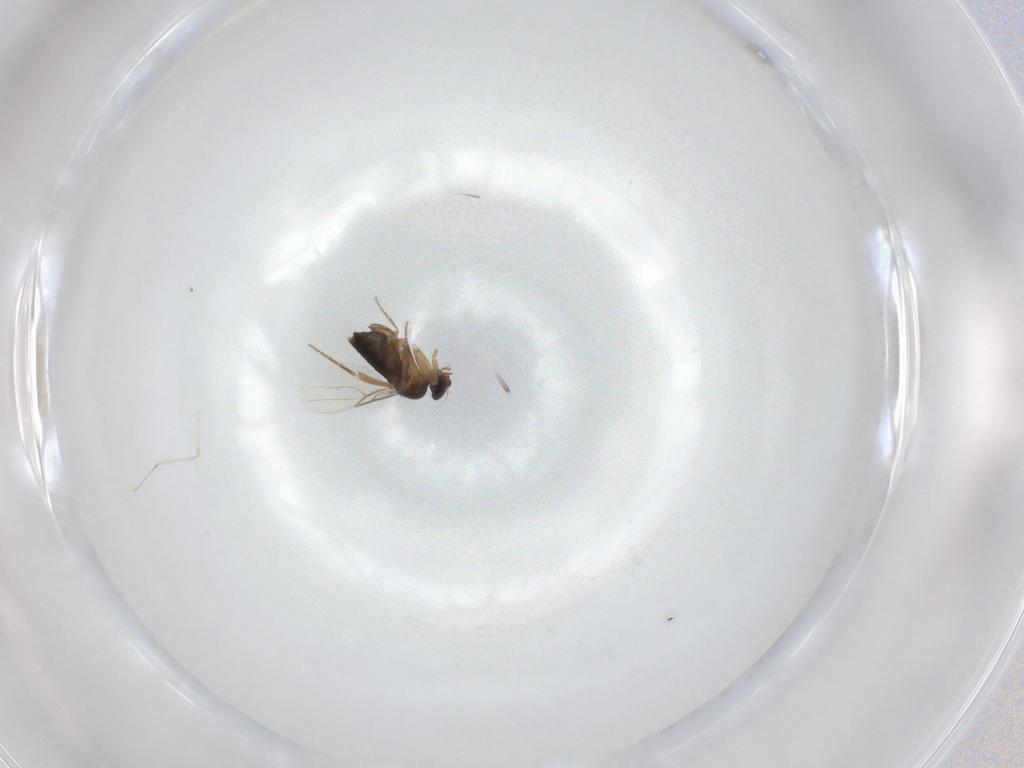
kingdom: Animalia
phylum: Arthropoda
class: Insecta
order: Diptera
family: Phoridae
